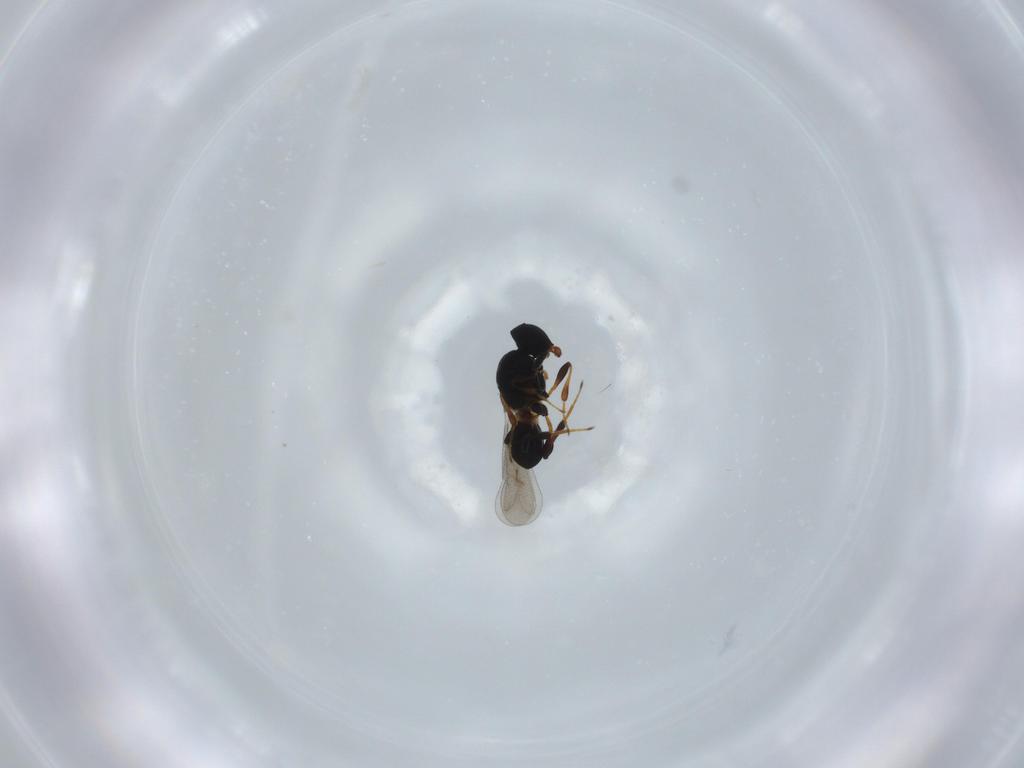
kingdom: Animalia
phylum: Arthropoda
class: Insecta
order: Hymenoptera
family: Platygastridae
